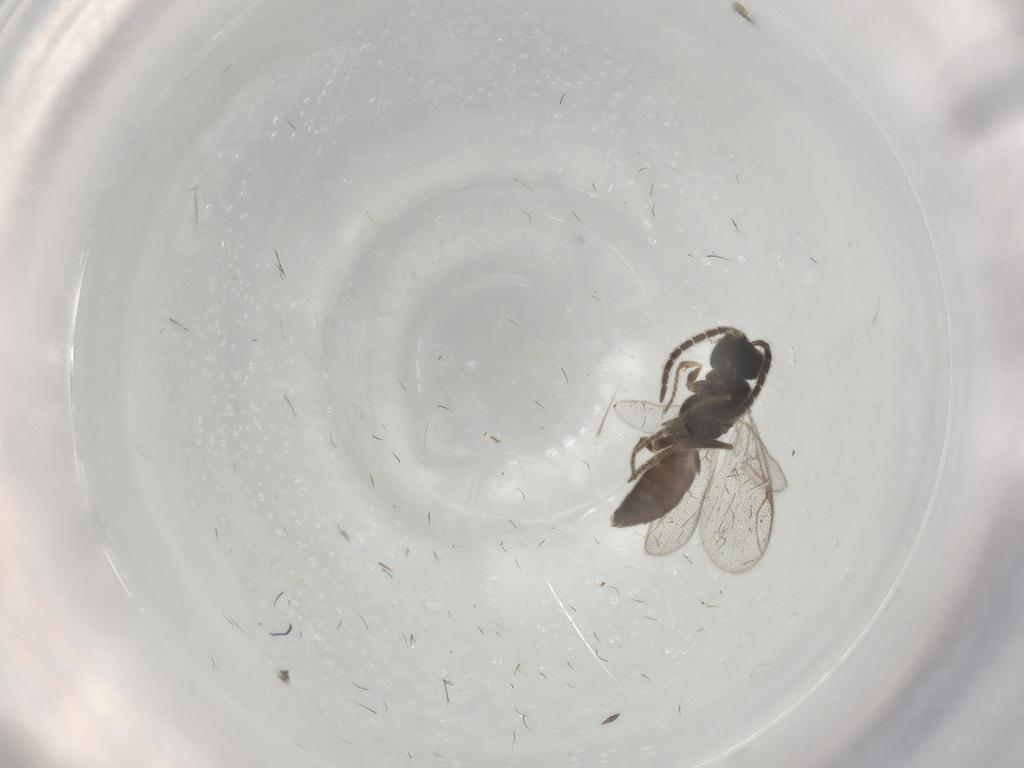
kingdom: Animalia
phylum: Arthropoda
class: Insecta
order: Hymenoptera
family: Dryinidae
